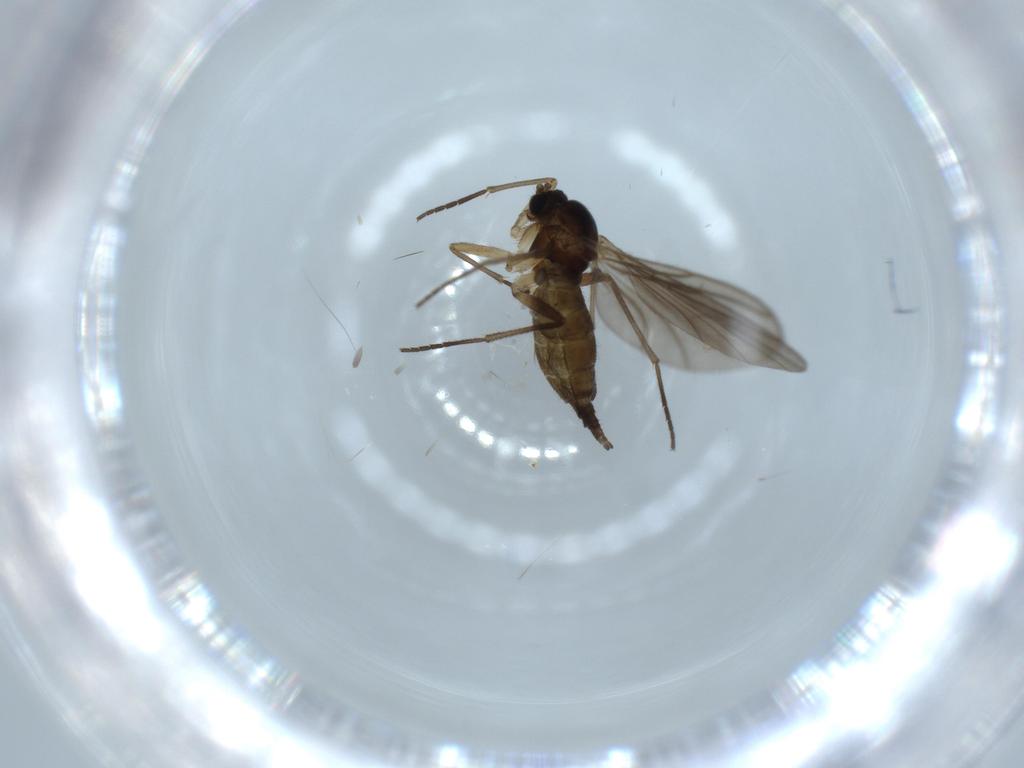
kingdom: Animalia
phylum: Arthropoda
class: Insecta
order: Diptera
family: Sciaridae
